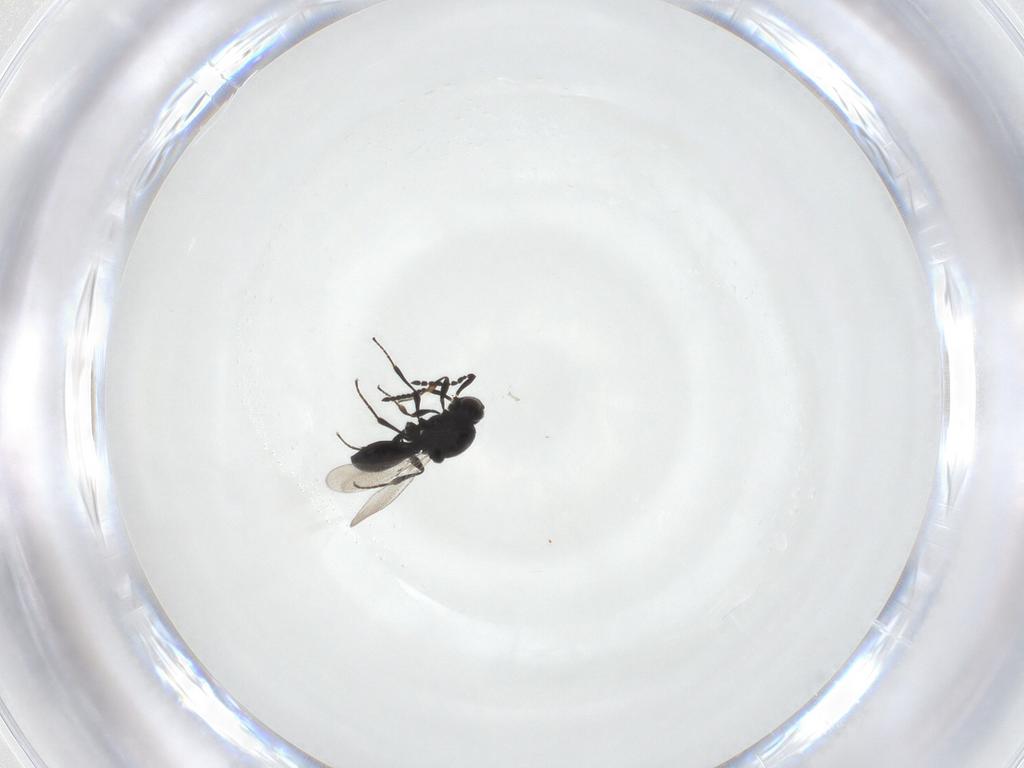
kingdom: Animalia
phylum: Arthropoda
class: Insecta
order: Hymenoptera
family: Platygastridae
